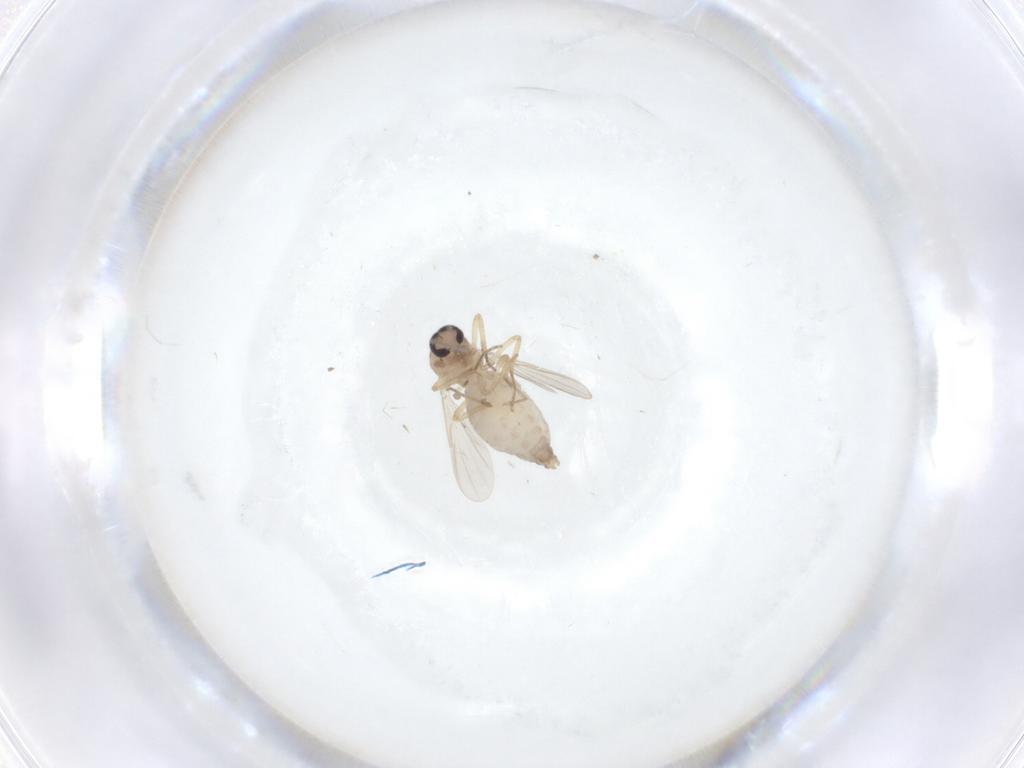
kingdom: Animalia
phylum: Arthropoda
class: Insecta
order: Diptera
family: Ceratopogonidae
